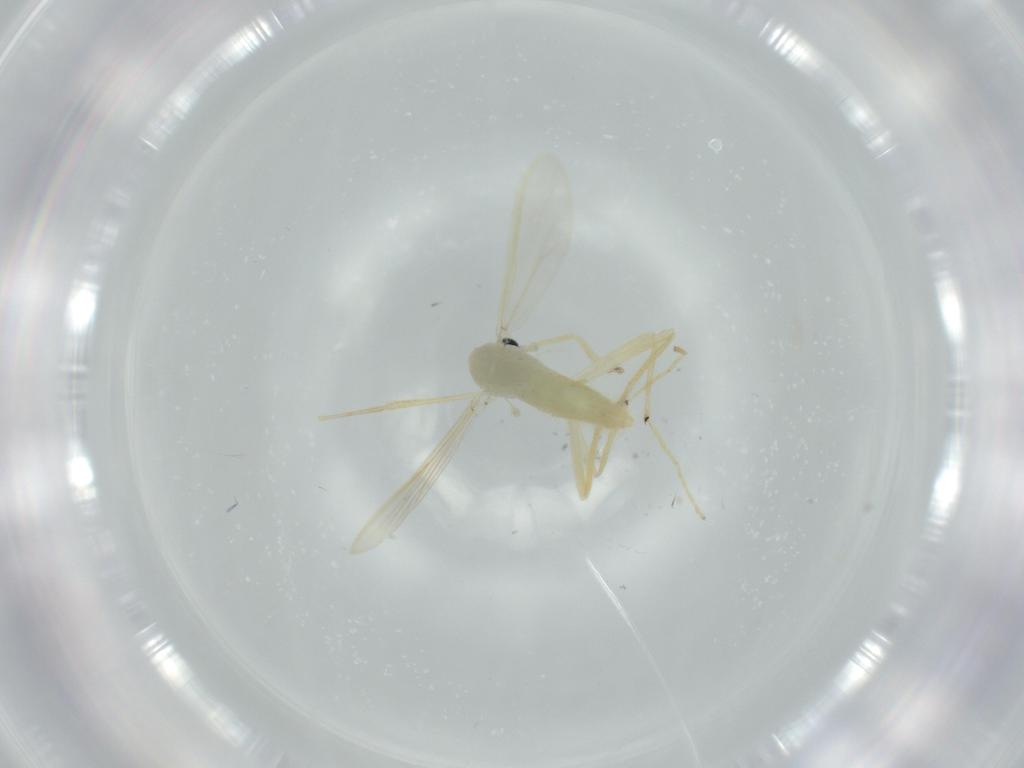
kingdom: Animalia
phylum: Arthropoda
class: Insecta
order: Diptera
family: Chironomidae
